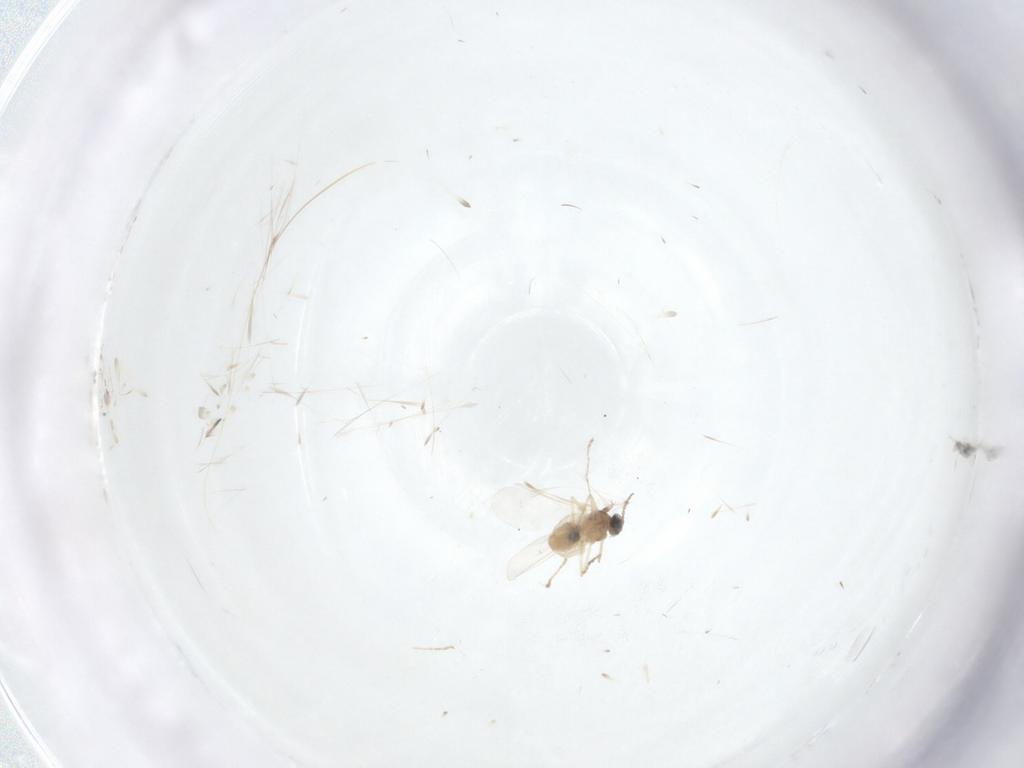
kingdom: Animalia
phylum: Arthropoda
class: Insecta
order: Diptera
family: Cecidomyiidae
